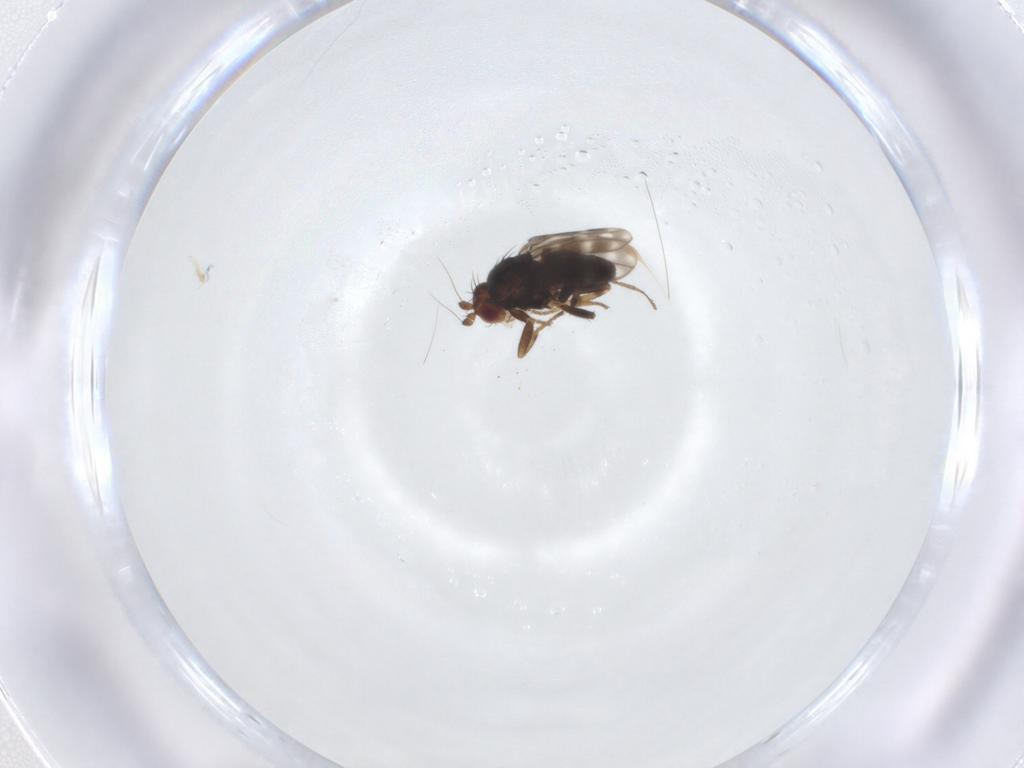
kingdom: Animalia
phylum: Arthropoda
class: Insecta
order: Diptera
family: Sphaeroceridae
